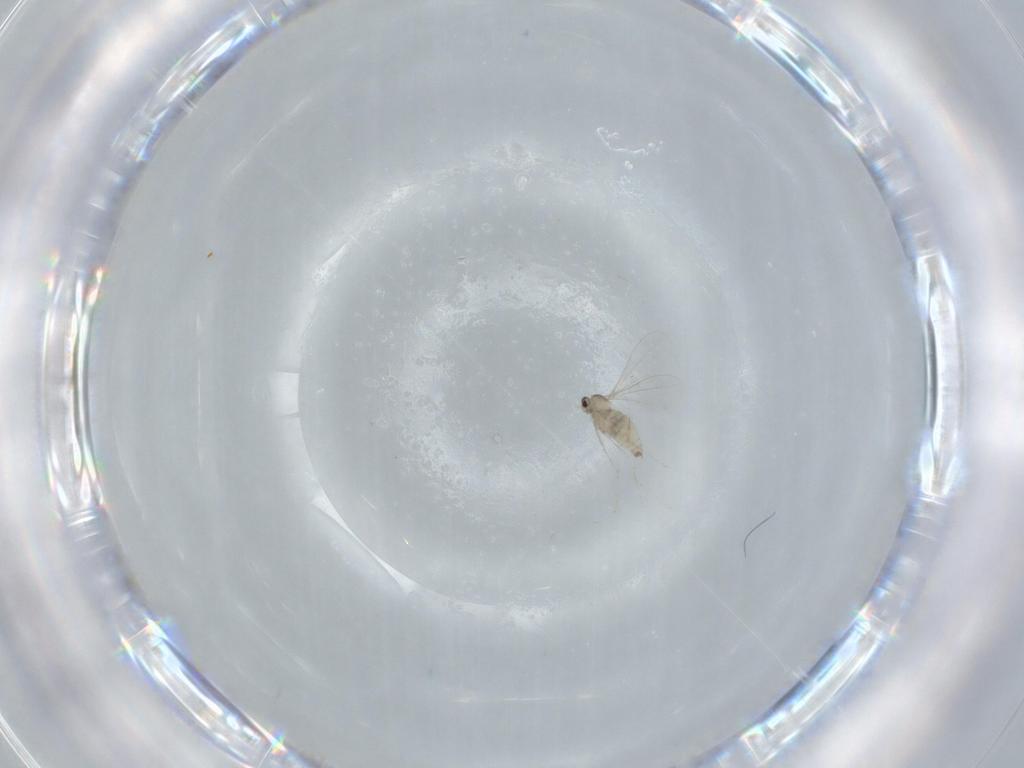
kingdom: Animalia
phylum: Arthropoda
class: Insecta
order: Diptera
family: Cecidomyiidae
